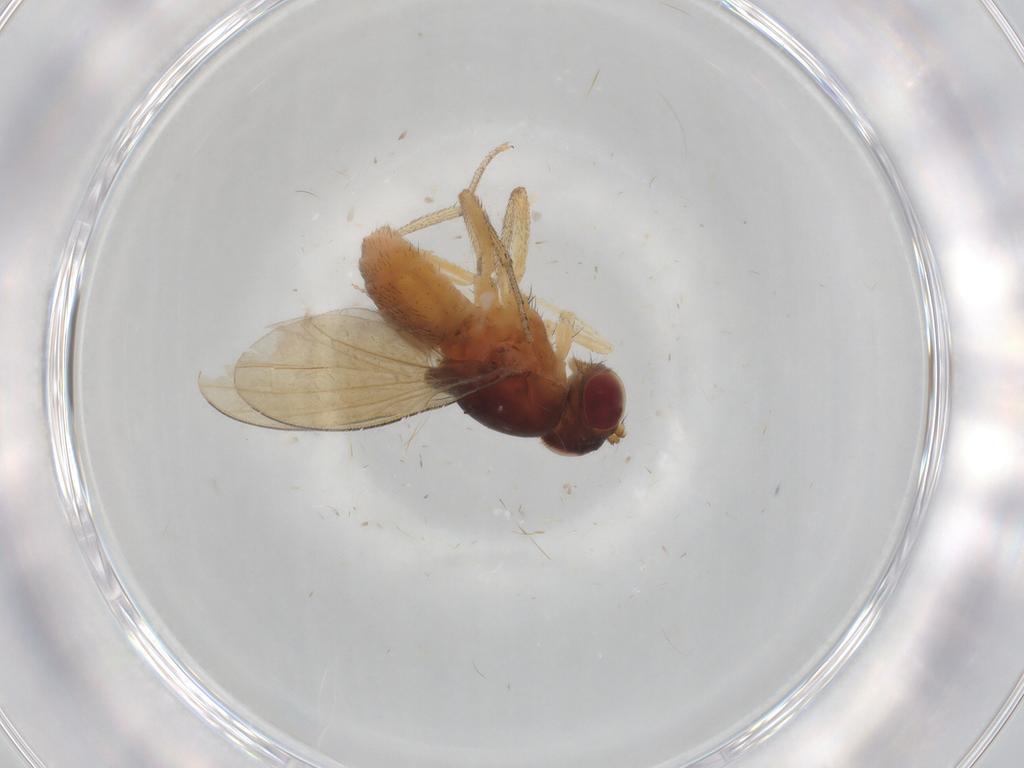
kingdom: Animalia
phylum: Arthropoda
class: Insecta
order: Diptera
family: Lauxaniidae
